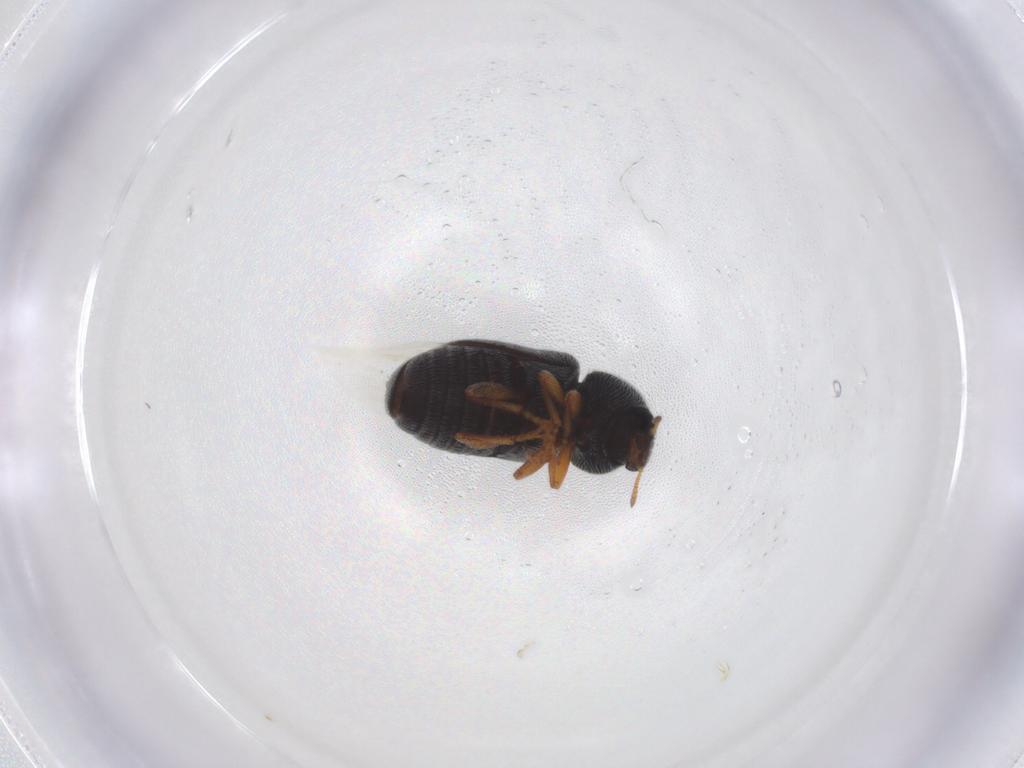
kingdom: Animalia
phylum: Arthropoda
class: Insecta
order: Coleoptera
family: Anthribidae
